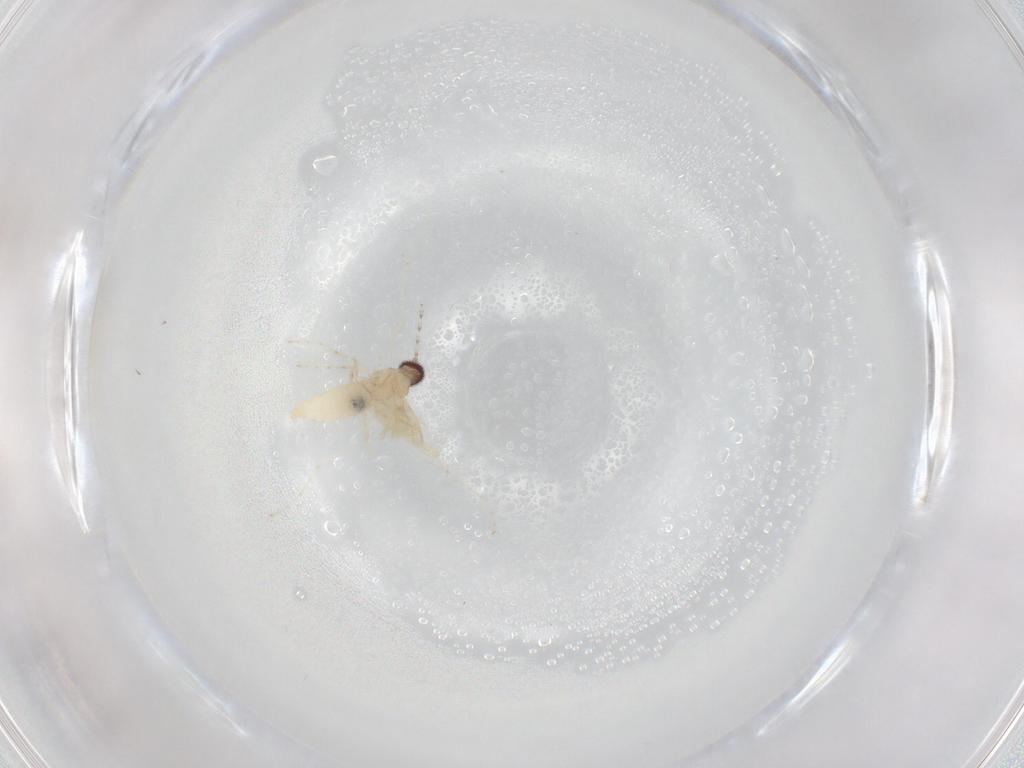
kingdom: Animalia
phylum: Arthropoda
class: Insecta
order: Diptera
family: Cecidomyiidae
